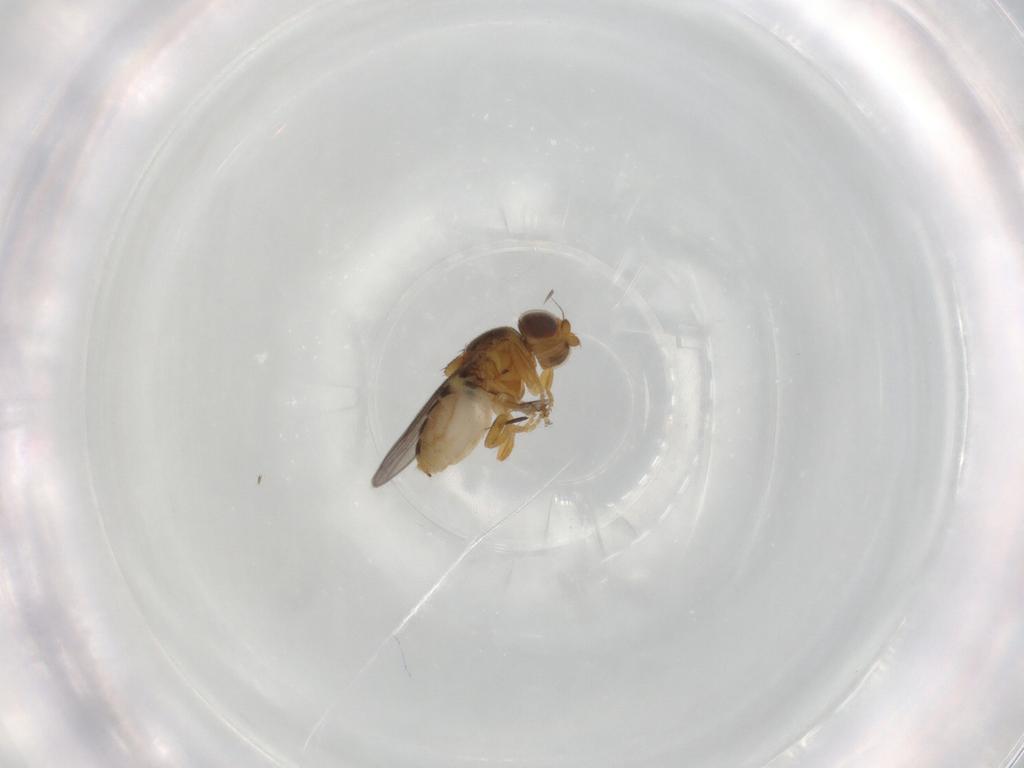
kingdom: Animalia
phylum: Arthropoda
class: Insecta
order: Diptera
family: Chloropidae
